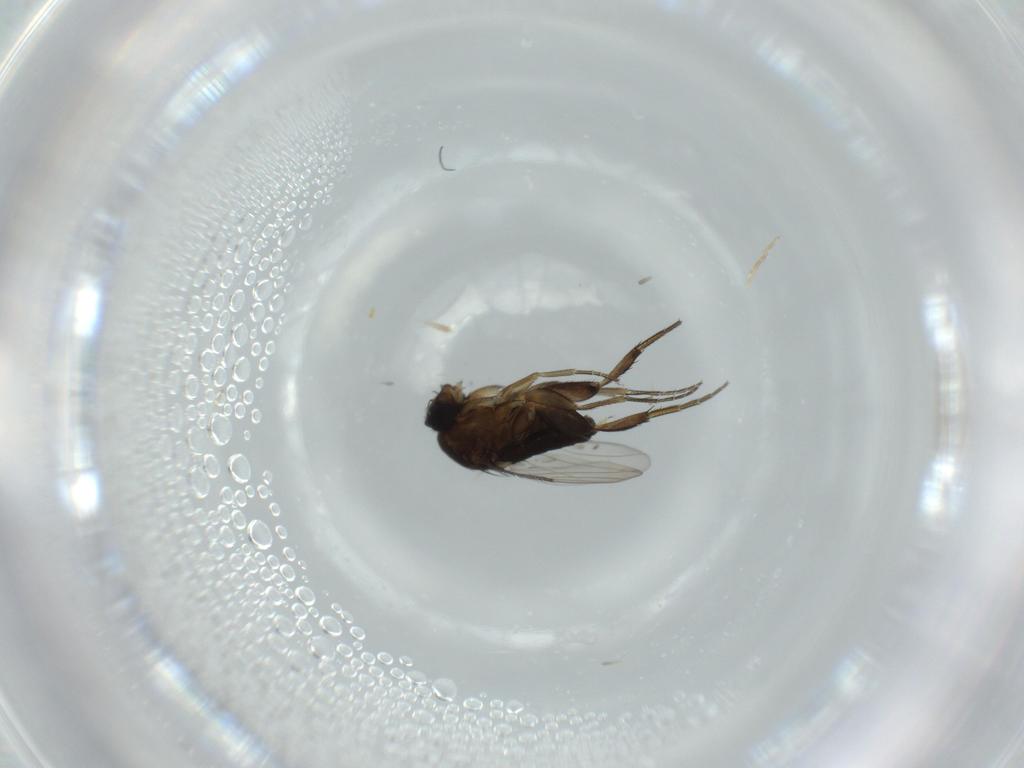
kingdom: Animalia
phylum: Arthropoda
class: Insecta
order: Diptera
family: Phoridae
